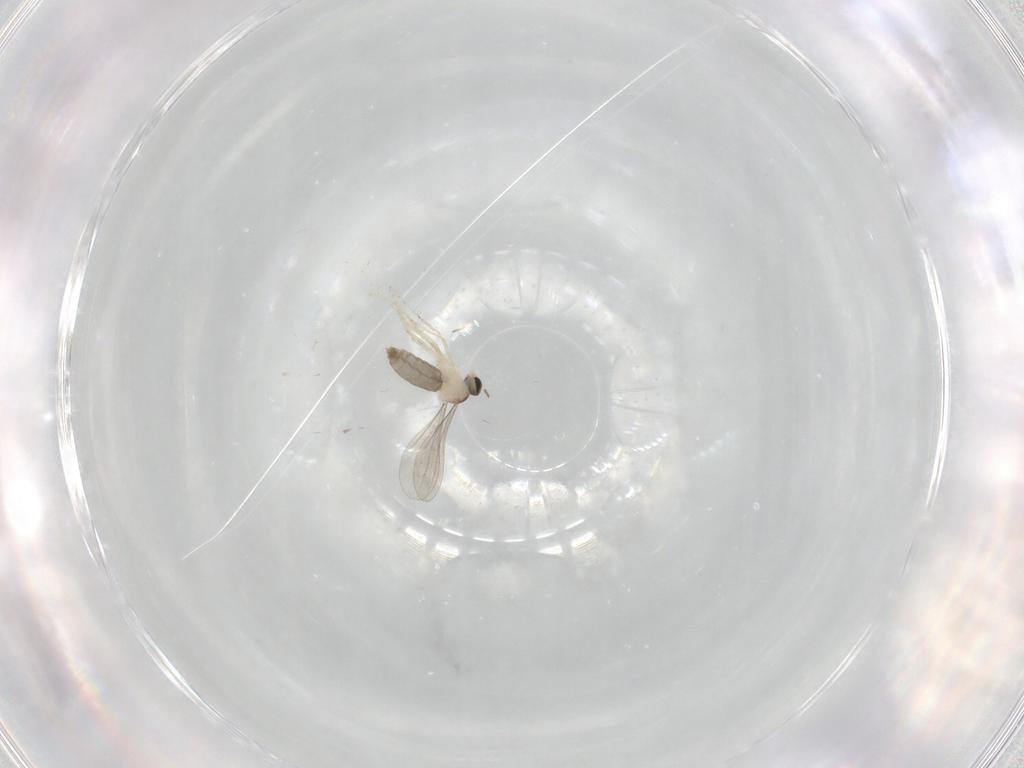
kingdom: Animalia
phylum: Arthropoda
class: Insecta
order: Diptera
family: Cecidomyiidae
